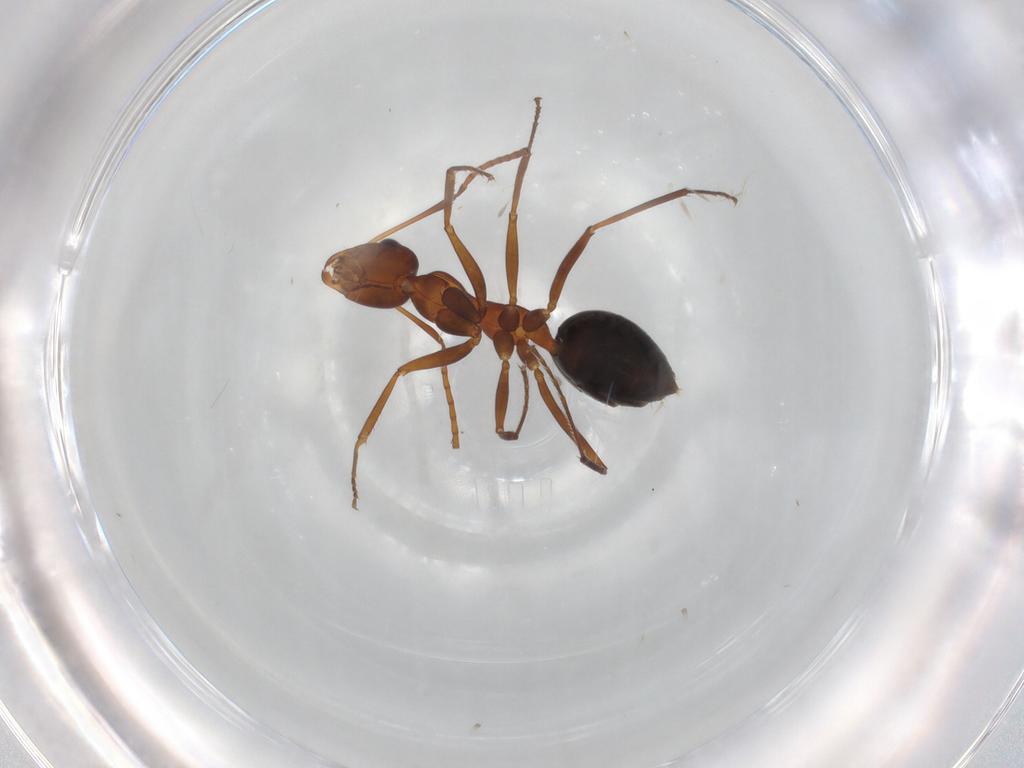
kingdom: Animalia
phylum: Arthropoda
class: Insecta
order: Hymenoptera
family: Formicidae
